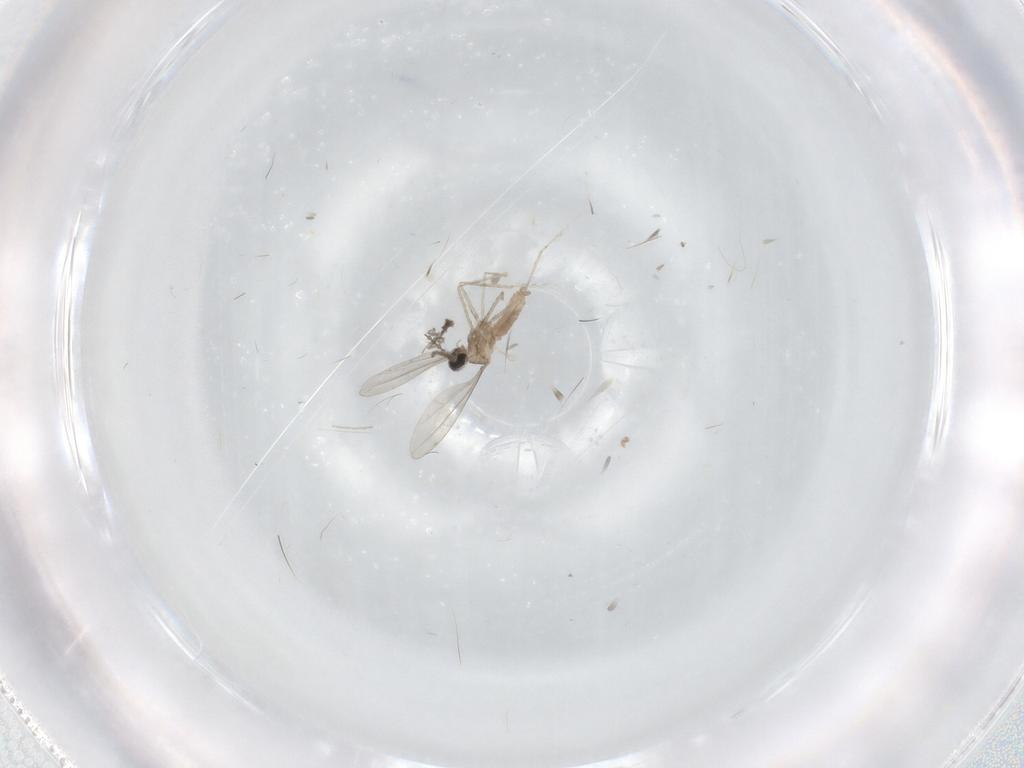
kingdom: Animalia
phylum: Arthropoda
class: Insecta
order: Diptera
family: Cecidomyiidae
